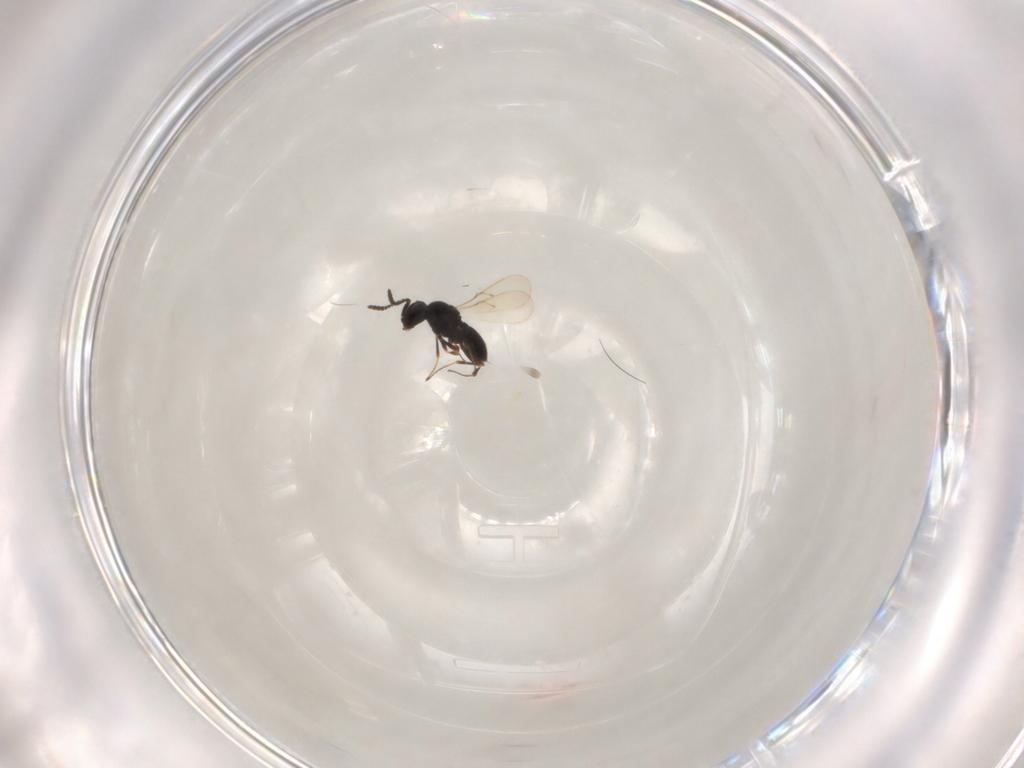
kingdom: Animalia
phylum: Arthropoda
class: Insecta
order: Hymenoptera
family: Scelionidae
